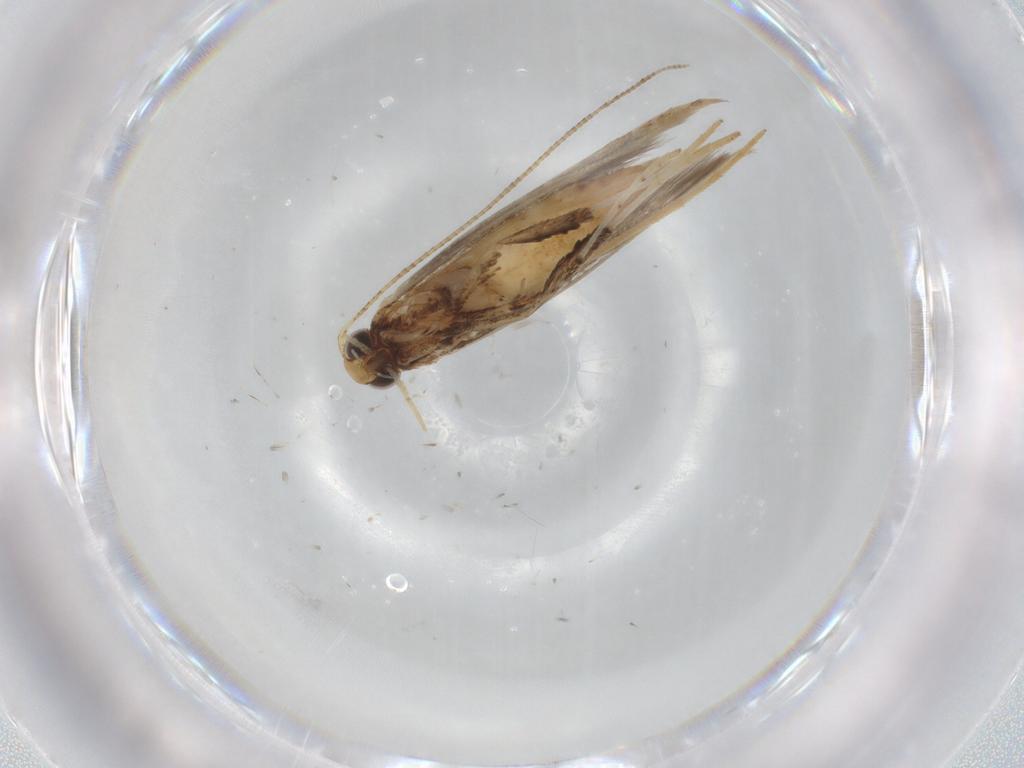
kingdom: Animalia
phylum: Arthropoda
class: Insecta
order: Lepidoptera
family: Gracillariidae
